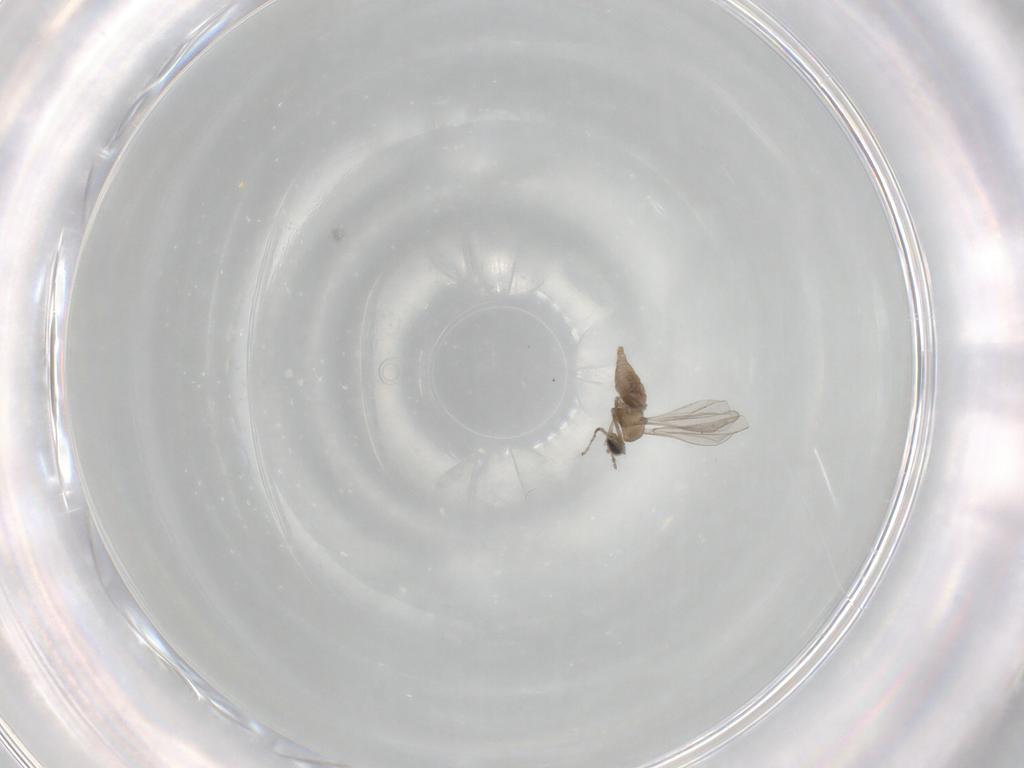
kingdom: Animalia
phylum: Arthropoda
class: Insecta
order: Diptera
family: Cecidomyiidae
